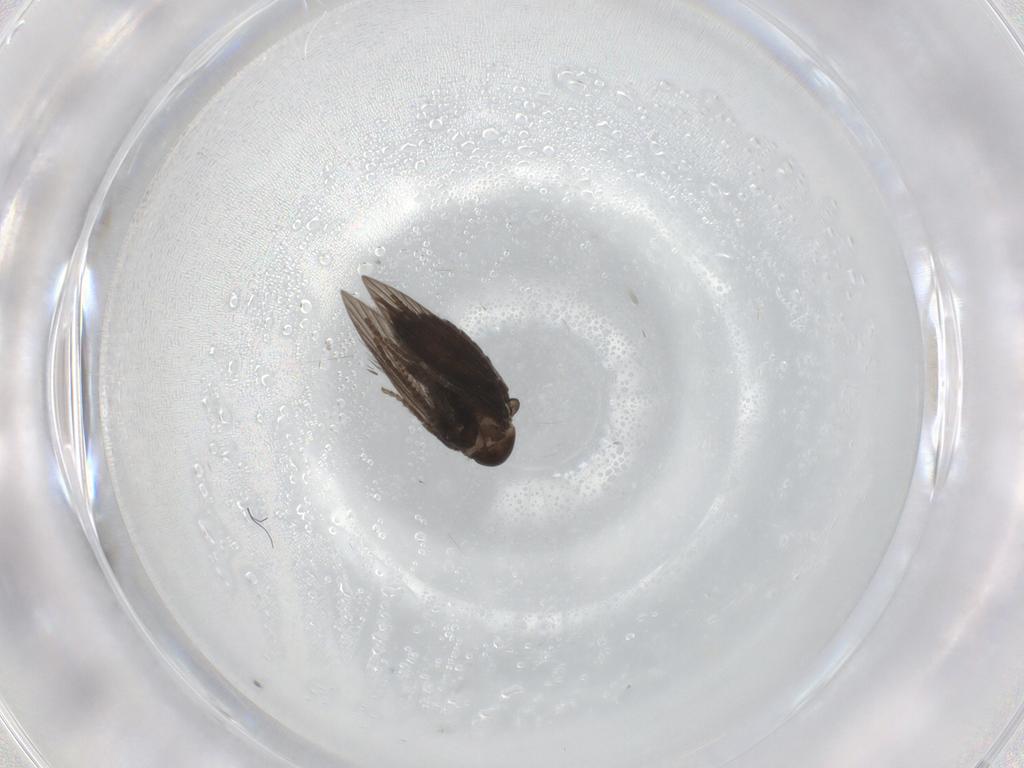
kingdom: Animalia
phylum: Arthropoda
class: Insecta
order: Diptera
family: Psychodidae
